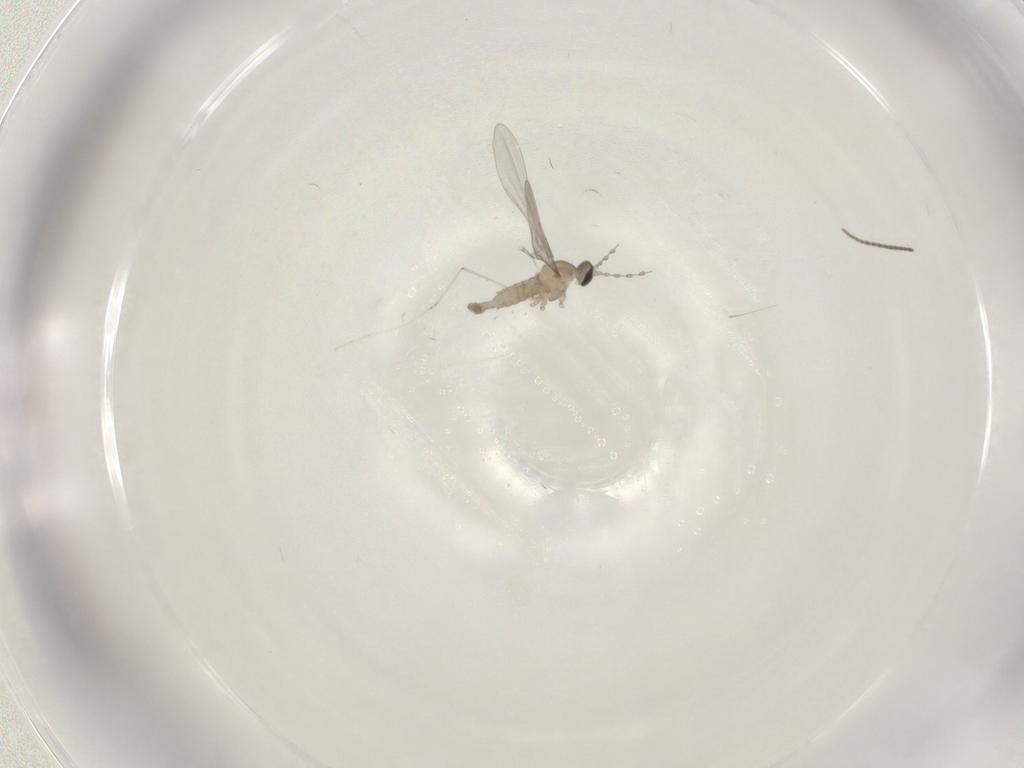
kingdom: Animalia
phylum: Arthropoda
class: Insecta
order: Diptera
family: Cecidomyiidae
